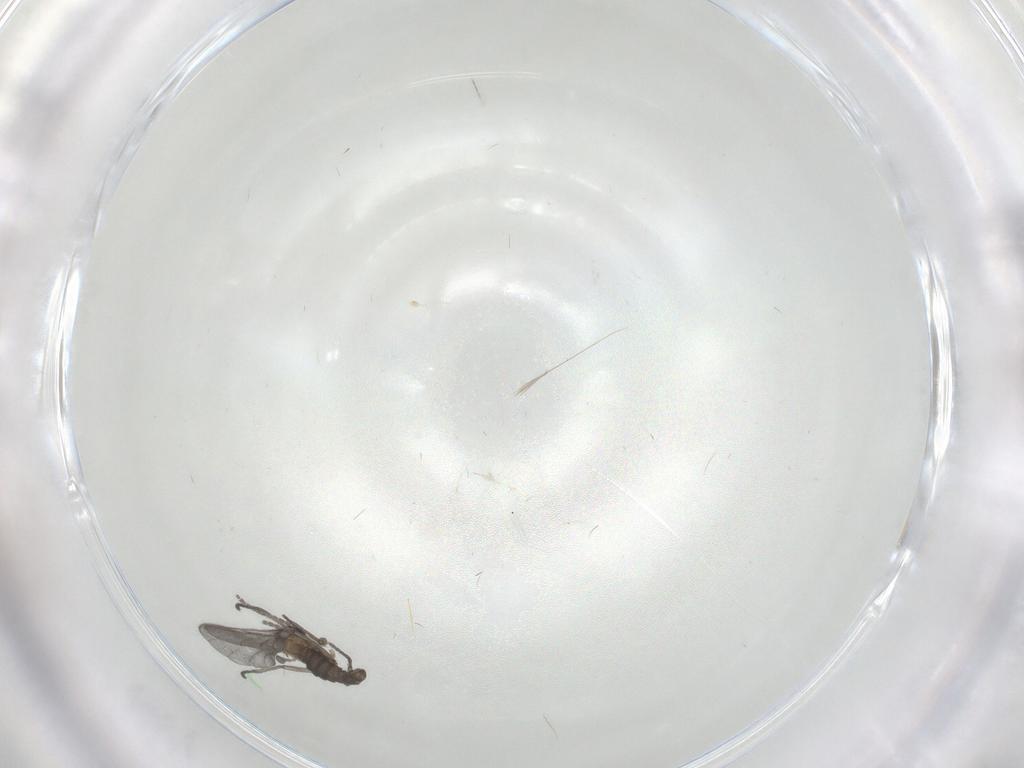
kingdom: Animalia
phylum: Arthropoda
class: Insecta
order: Diptera
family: Sciaridae
